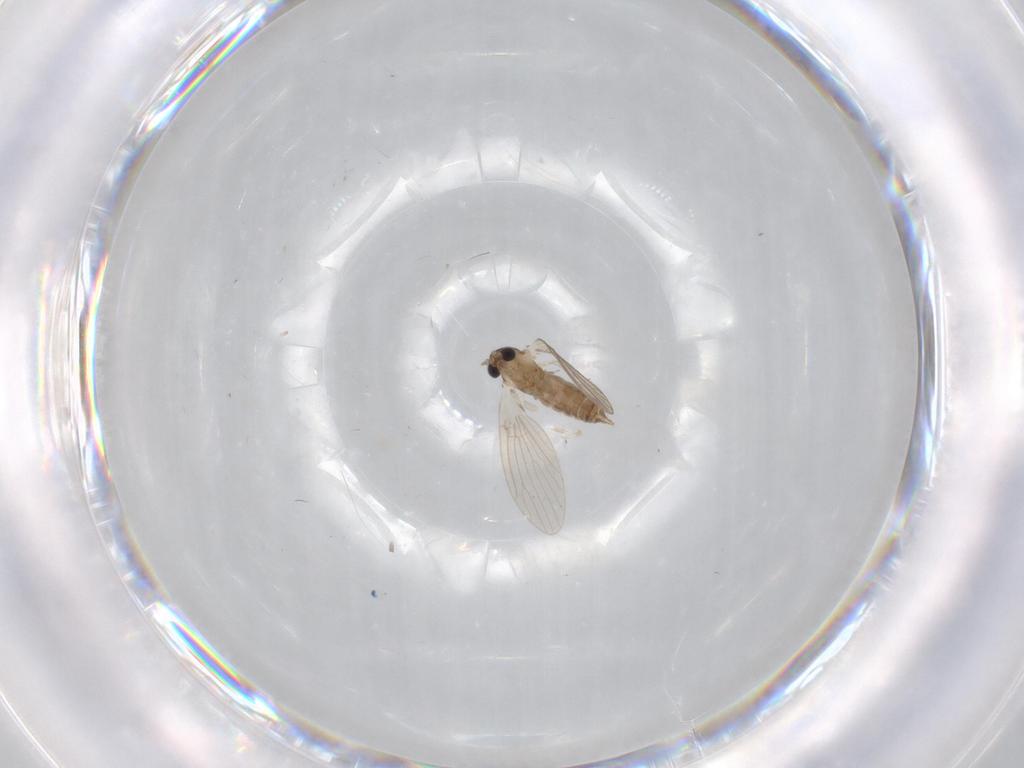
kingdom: Animalia
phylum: Arthropoda
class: Insecta
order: Diptera
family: Psychodidae
